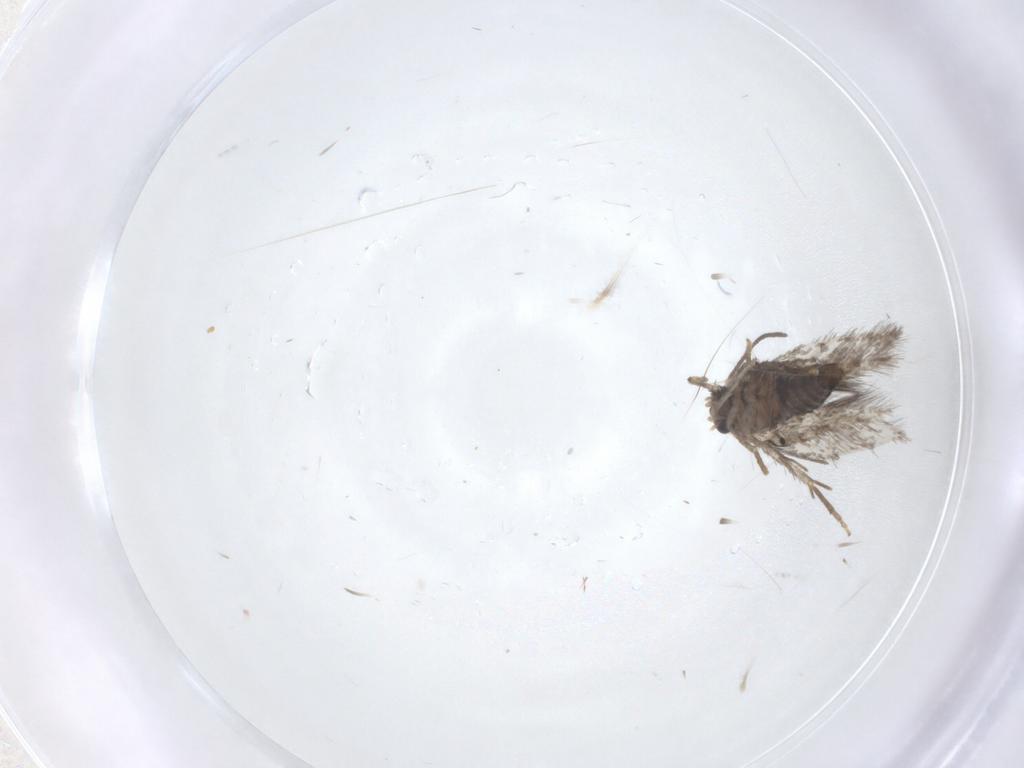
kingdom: Animalia
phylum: Arthropoda
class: Insecta
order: Lepidoptera
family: Nepticulidae
